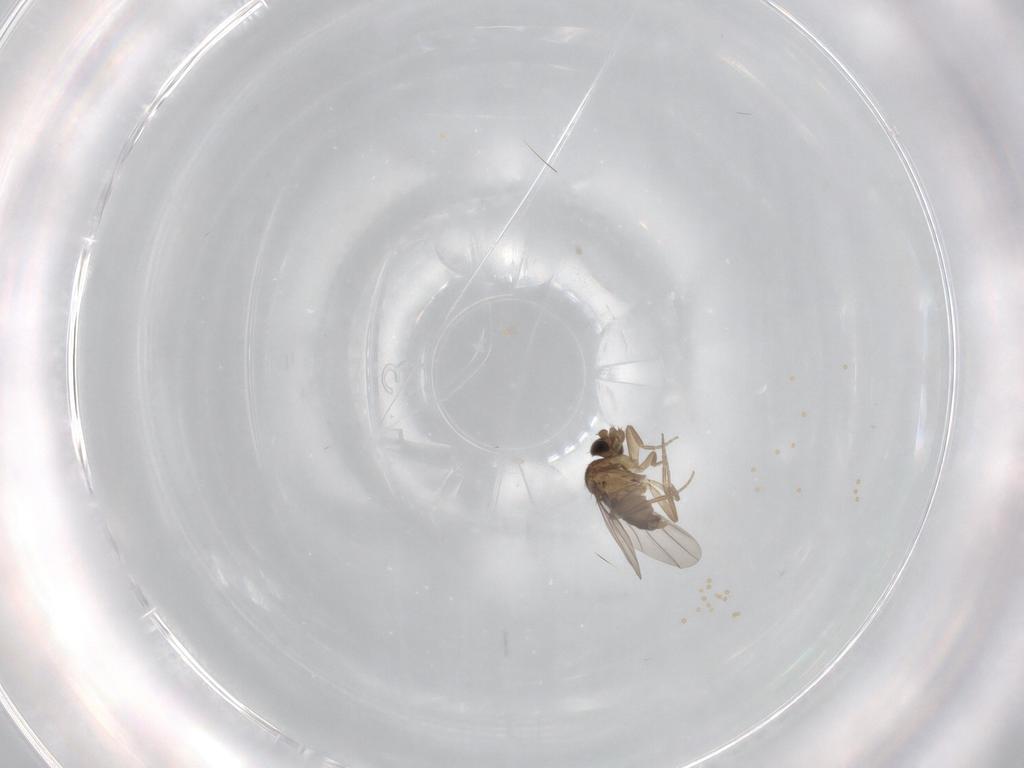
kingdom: Animalia
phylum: Arthropoda
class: Insecta
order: Diptera
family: Phoridae
